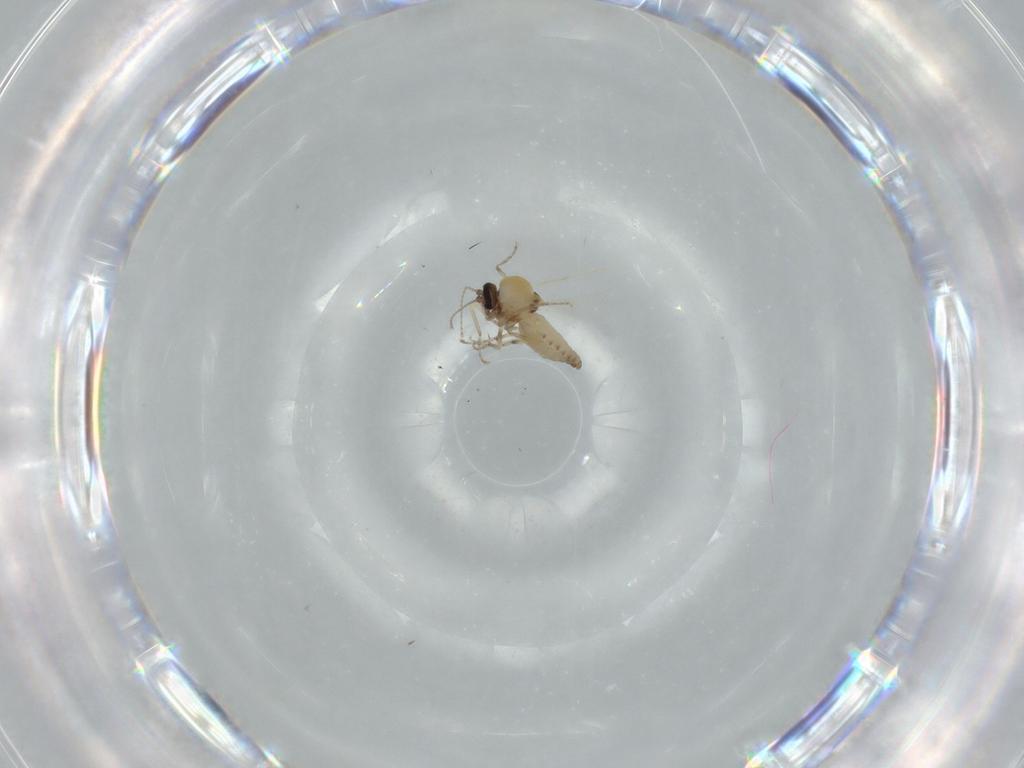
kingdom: Animalia
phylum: Arthropoda
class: Insecta
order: Diptera
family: Ceratopogonidae
